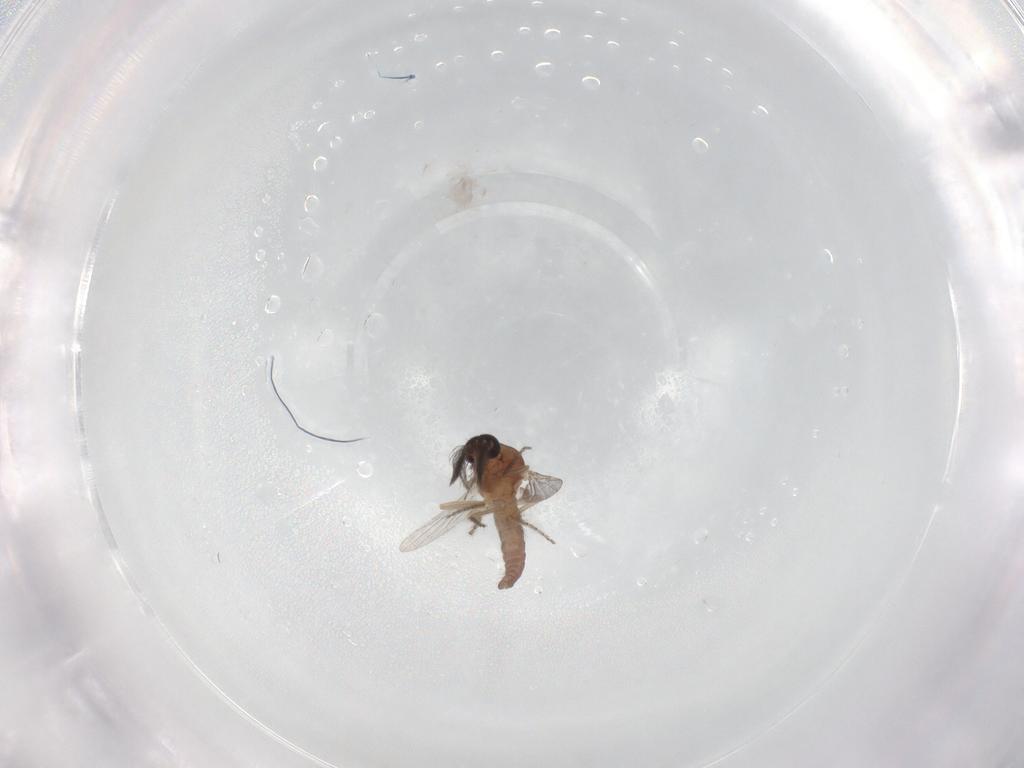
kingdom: Animalia
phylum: Arthropoda
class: Insecta
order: Diptera
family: Ceratopogonidae
